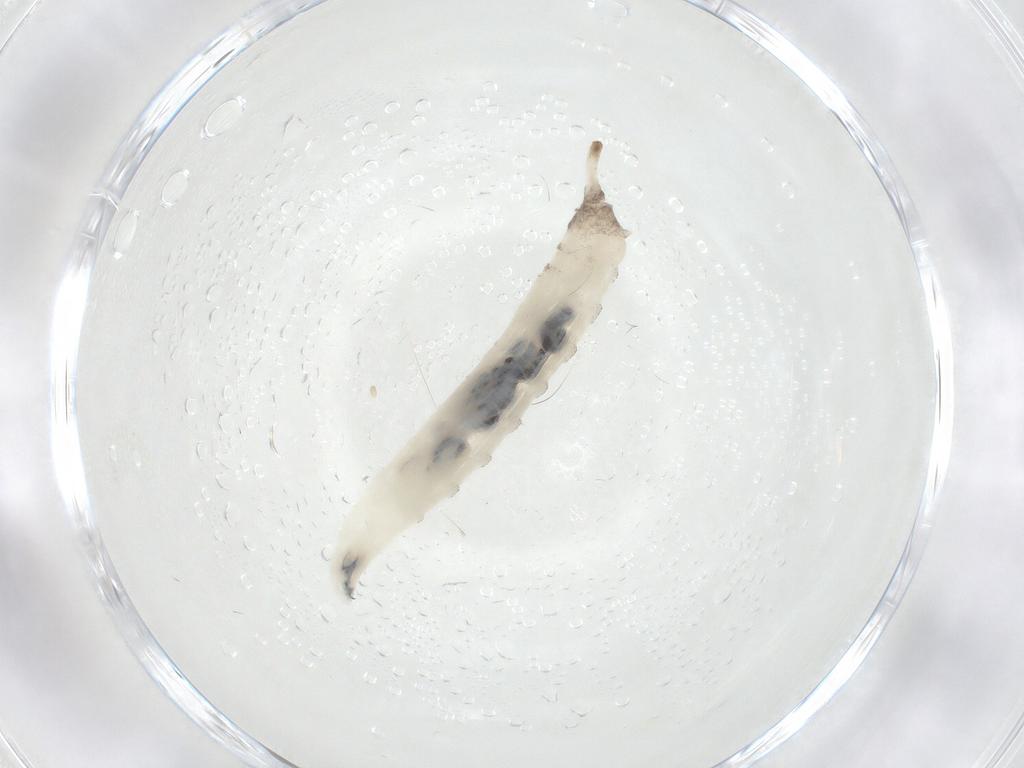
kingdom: Animalia
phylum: Arthropoda
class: Insecta
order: Diptera
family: Drosophilidae
